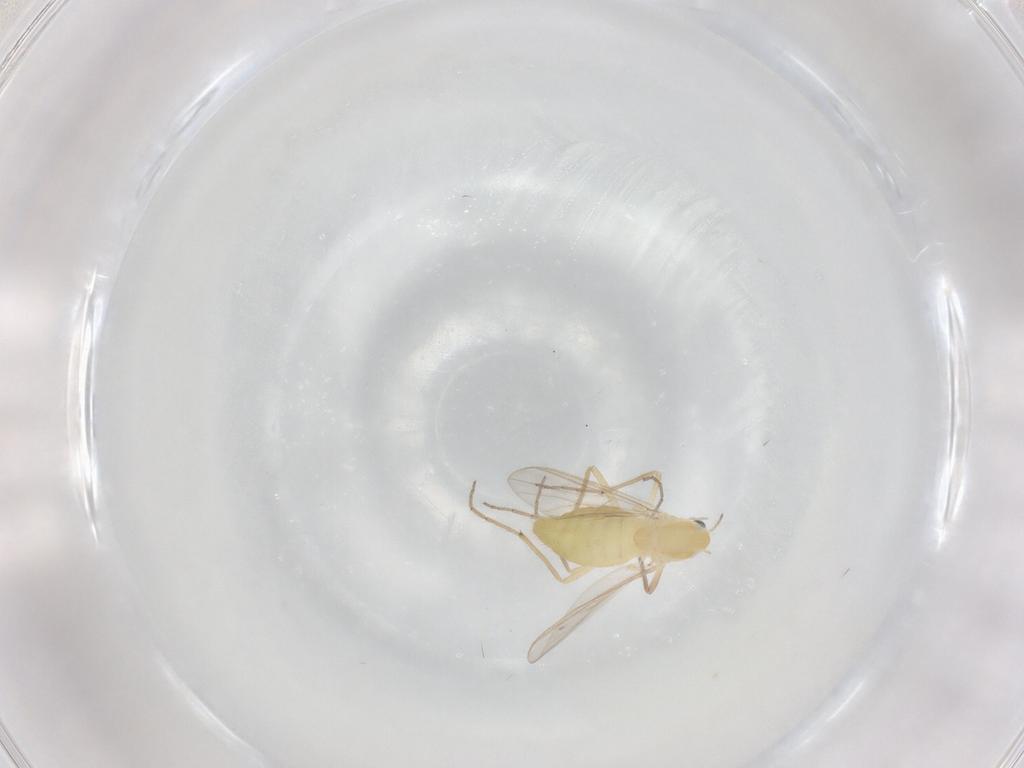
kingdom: Animalia
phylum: Arthropoda
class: Insecta
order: Diptera
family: Chironomidae
